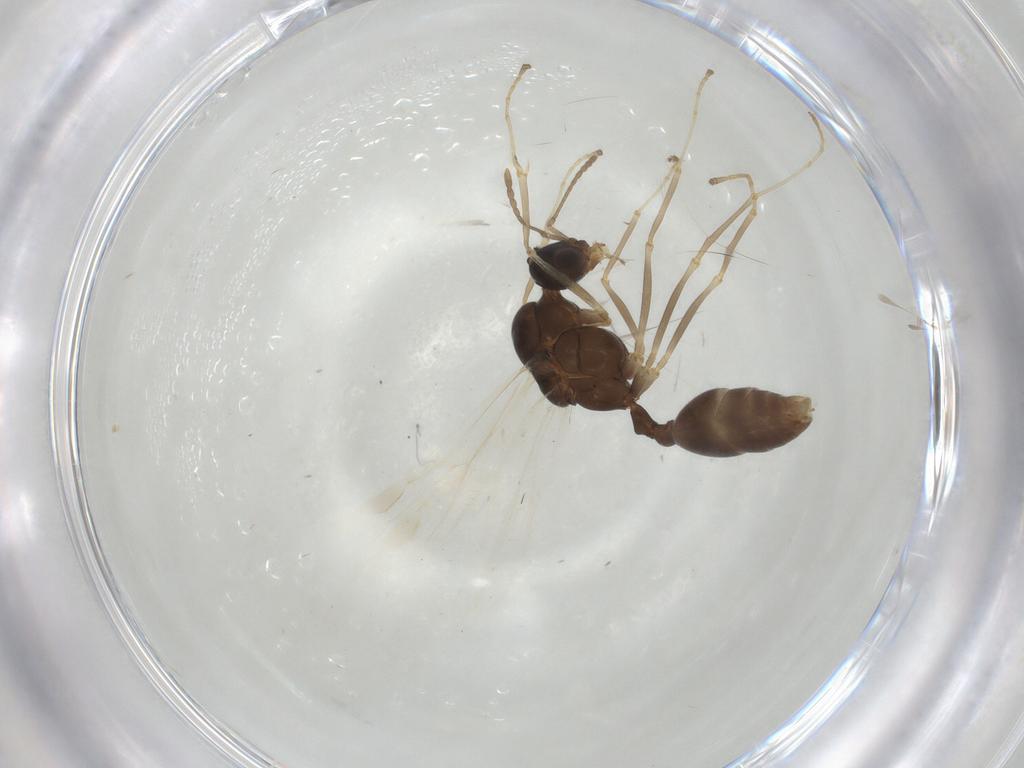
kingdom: Animalia
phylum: Arthropoda
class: Insecta
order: Hymenoptera
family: Formicidae
